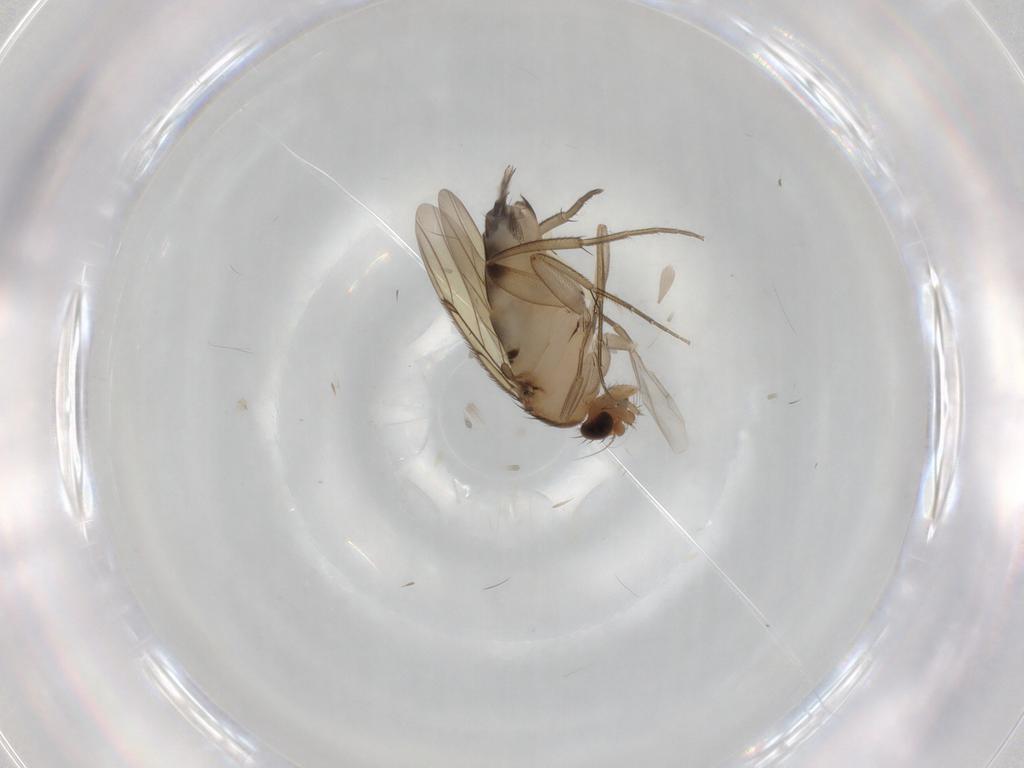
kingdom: Animalia
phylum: Arthropoda
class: Insecta
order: Diptera
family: Phoridae
